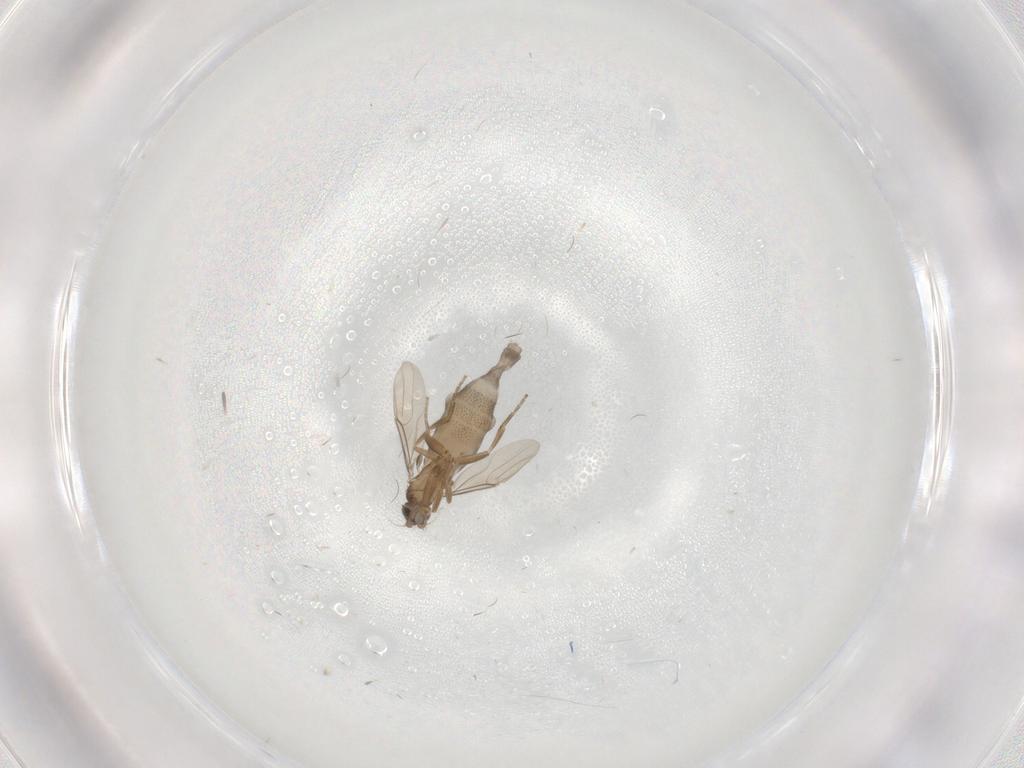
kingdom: Animalia
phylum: Arthropoda
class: Insecta
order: Diptera
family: Phoridae
